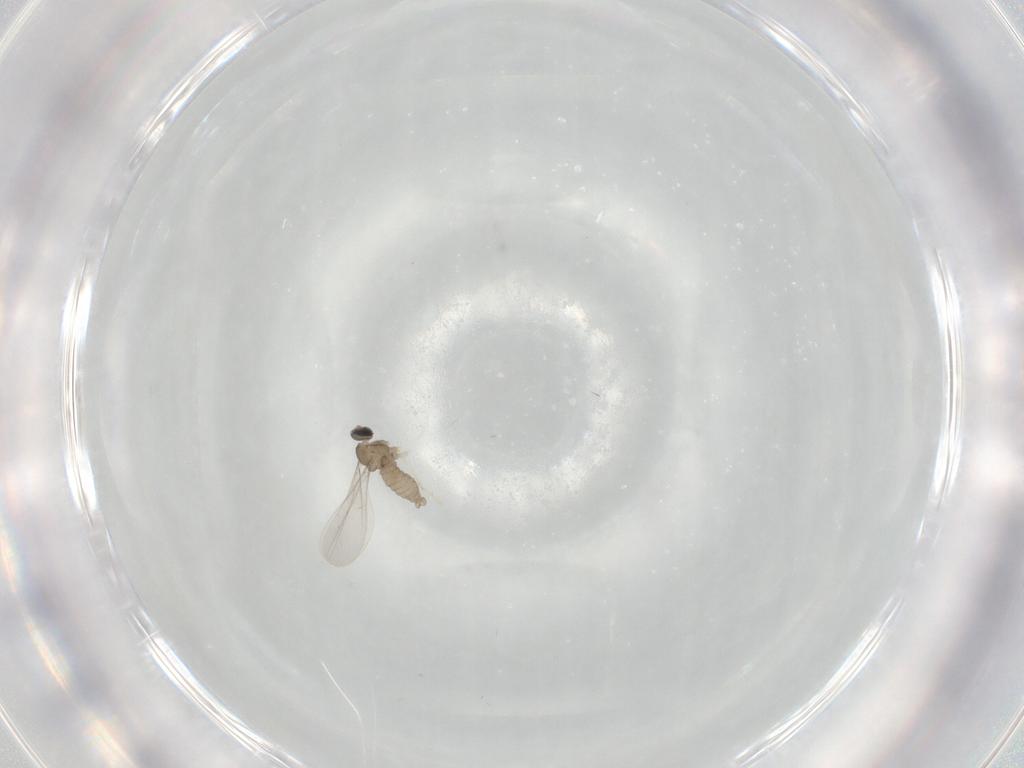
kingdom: Animalia
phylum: Arthropoda
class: Insecta
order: Diptera
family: Cecidomyiidae
